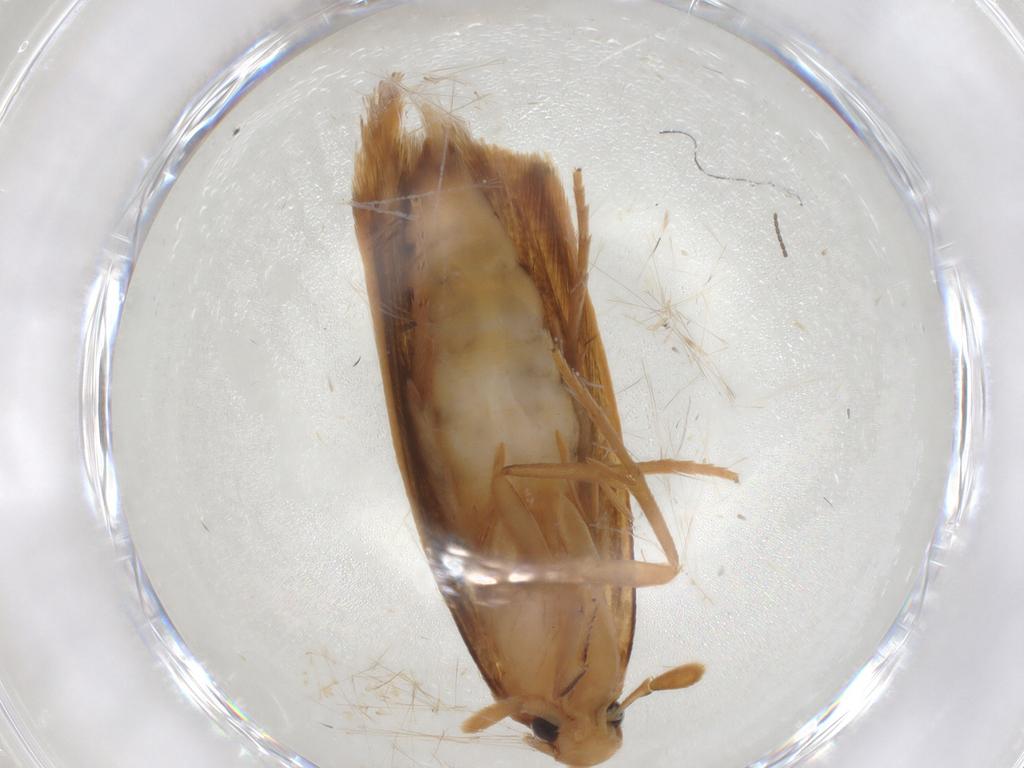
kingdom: Animalia
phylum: Arthropoda
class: Insecta
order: Lepidoptera
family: Tineidae
